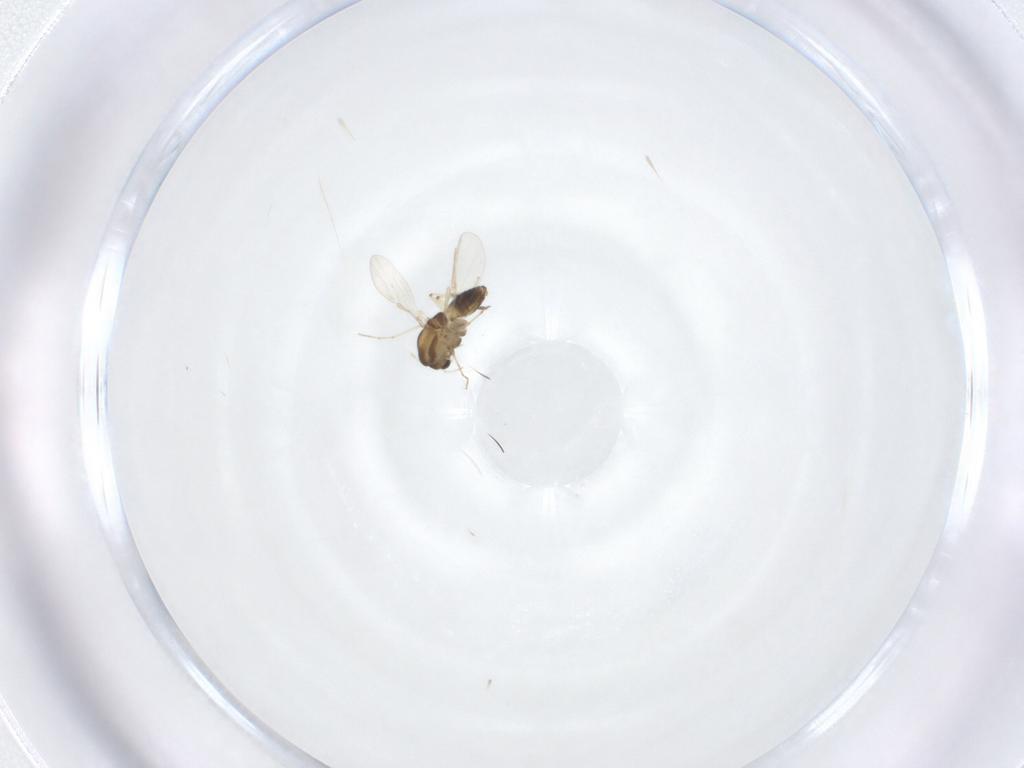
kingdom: Animalia
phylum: Arthropoda
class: Insecta
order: Diptera
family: Sciaridae
